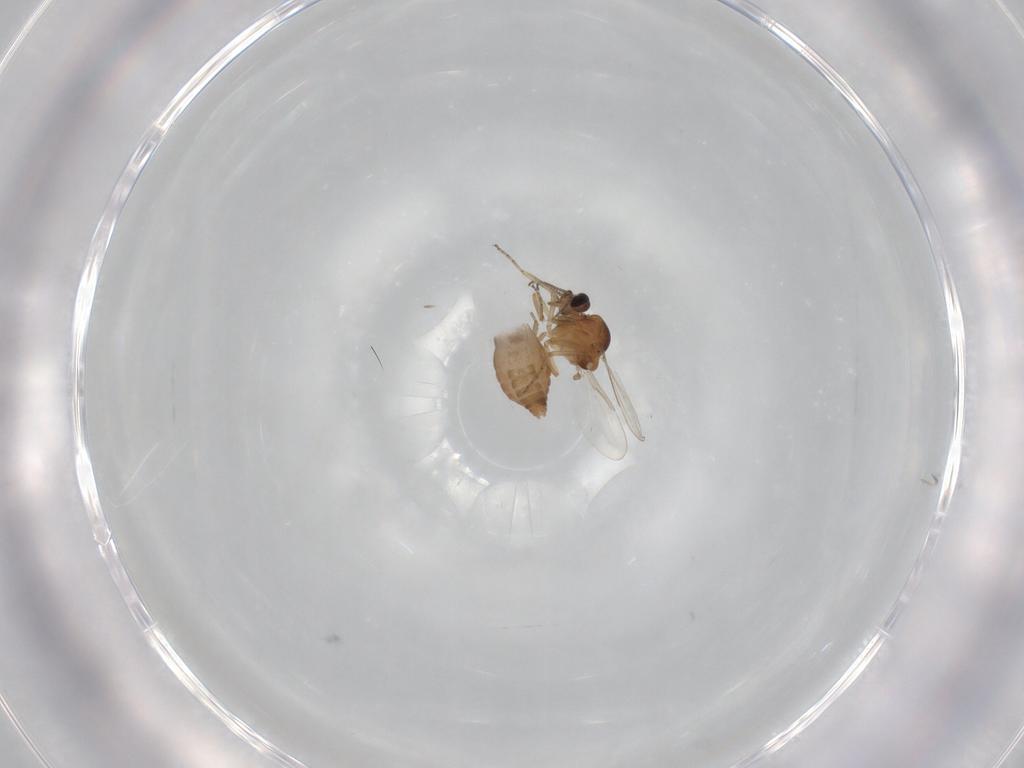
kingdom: Animalia
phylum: Arthropoda
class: Insecta
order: Diptera
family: Ceratopogonidae
